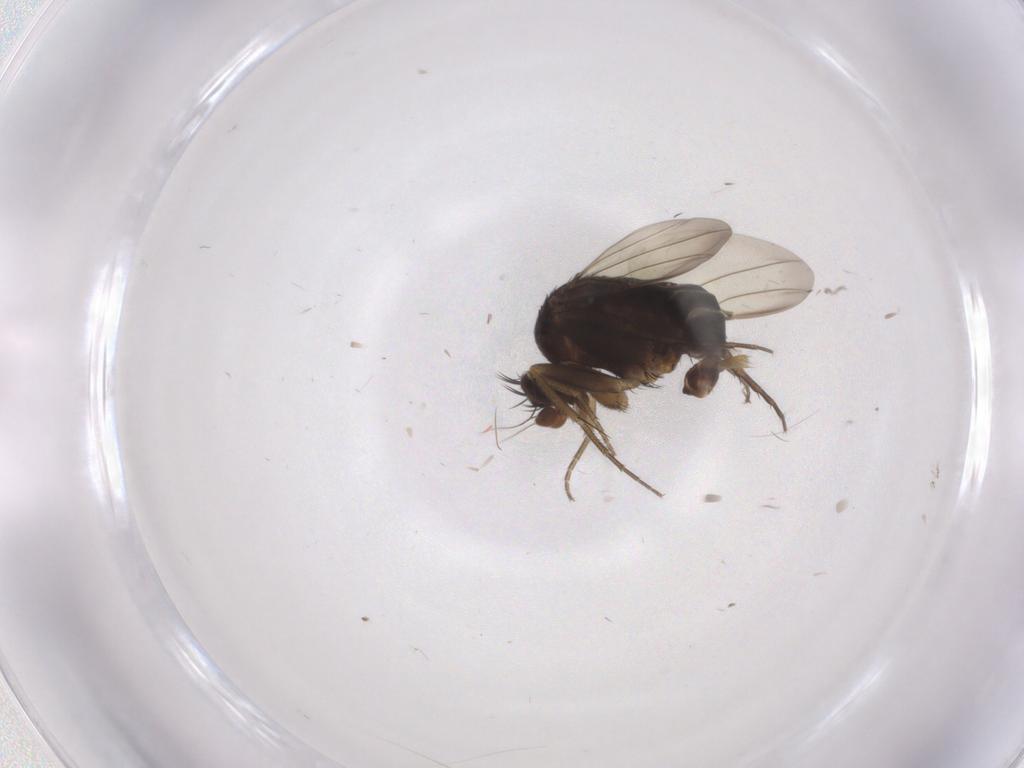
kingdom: Animalia
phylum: Arthropoda
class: Insecta
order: Diptera
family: Phoridae
